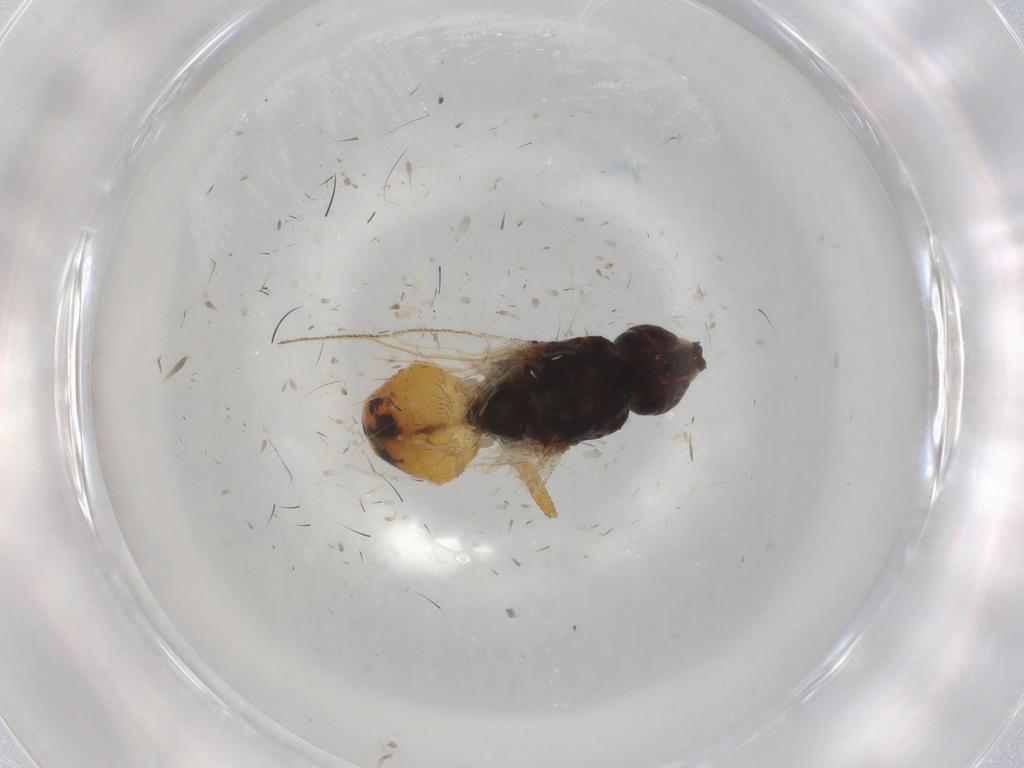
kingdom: Animalia
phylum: Arthropoda
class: Insecta
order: Diptera
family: Muscidae
